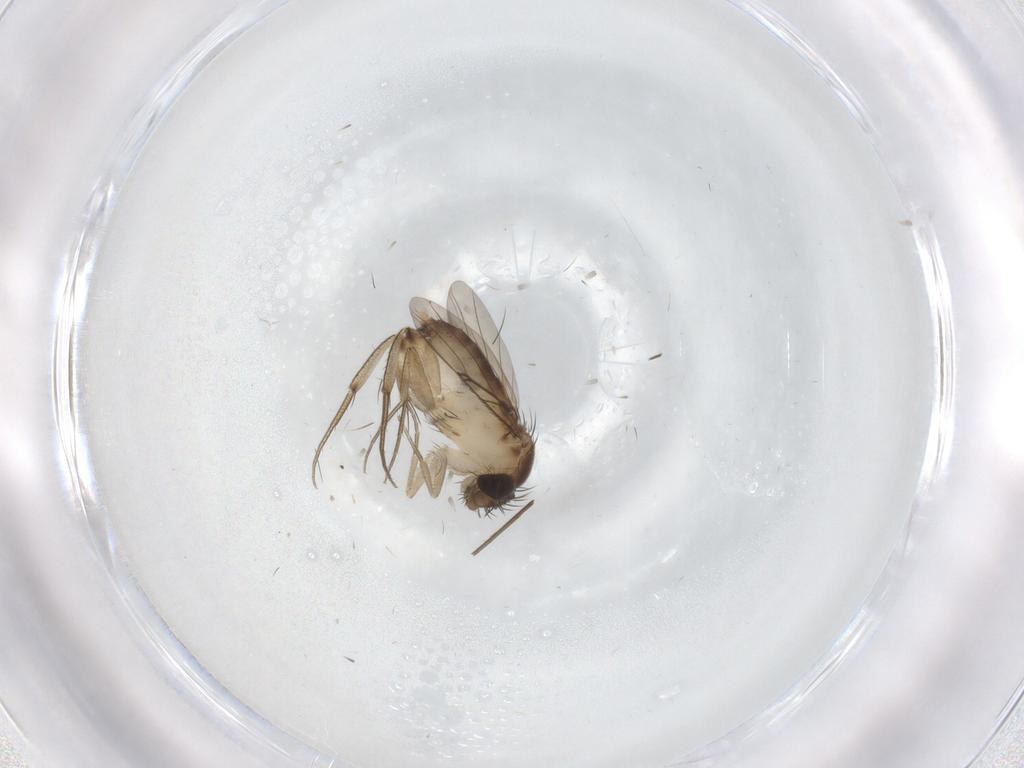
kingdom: Animalia
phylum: Arthropoda
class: Insecta
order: Diptera
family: Phoridae
